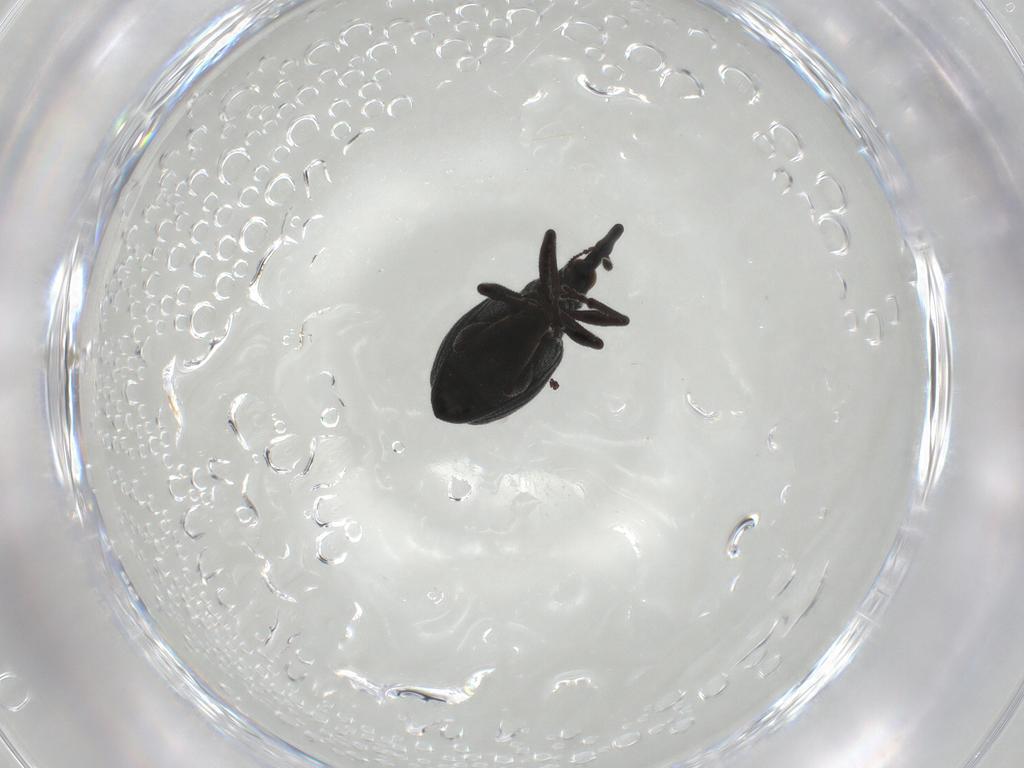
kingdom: Animalia
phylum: Arthropoda
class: Insecta
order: Coleoptera
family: Brentidae
